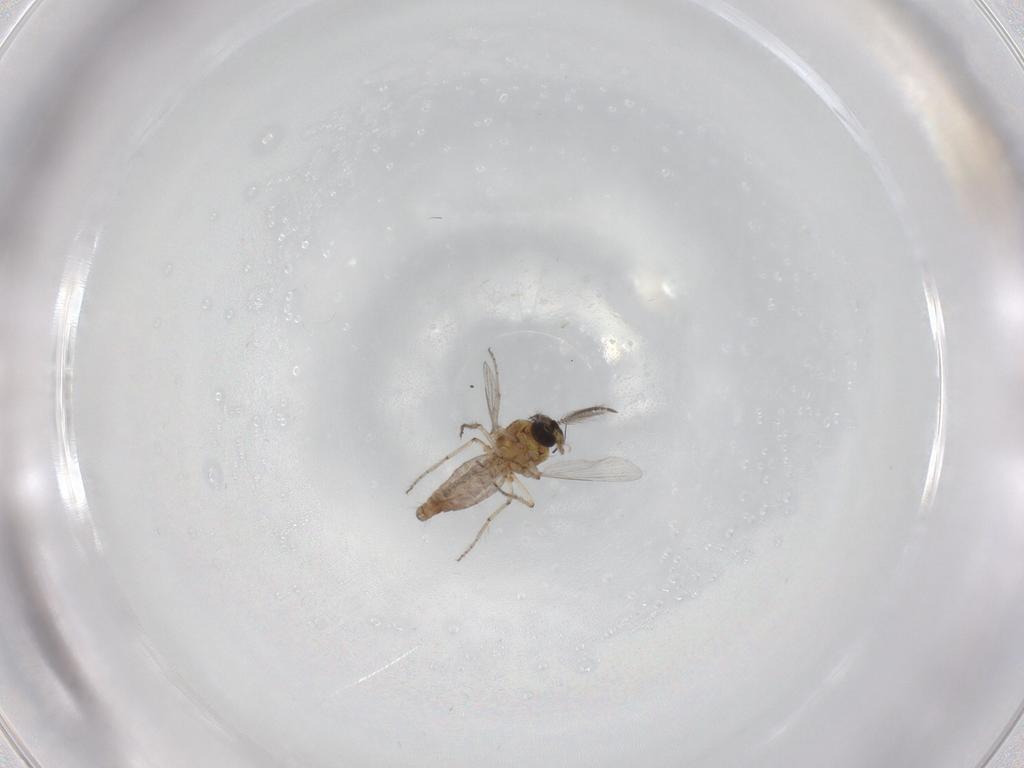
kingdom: Animalia
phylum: Arthropoda
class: Insecta
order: Diptera
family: Ceratopogonidae
